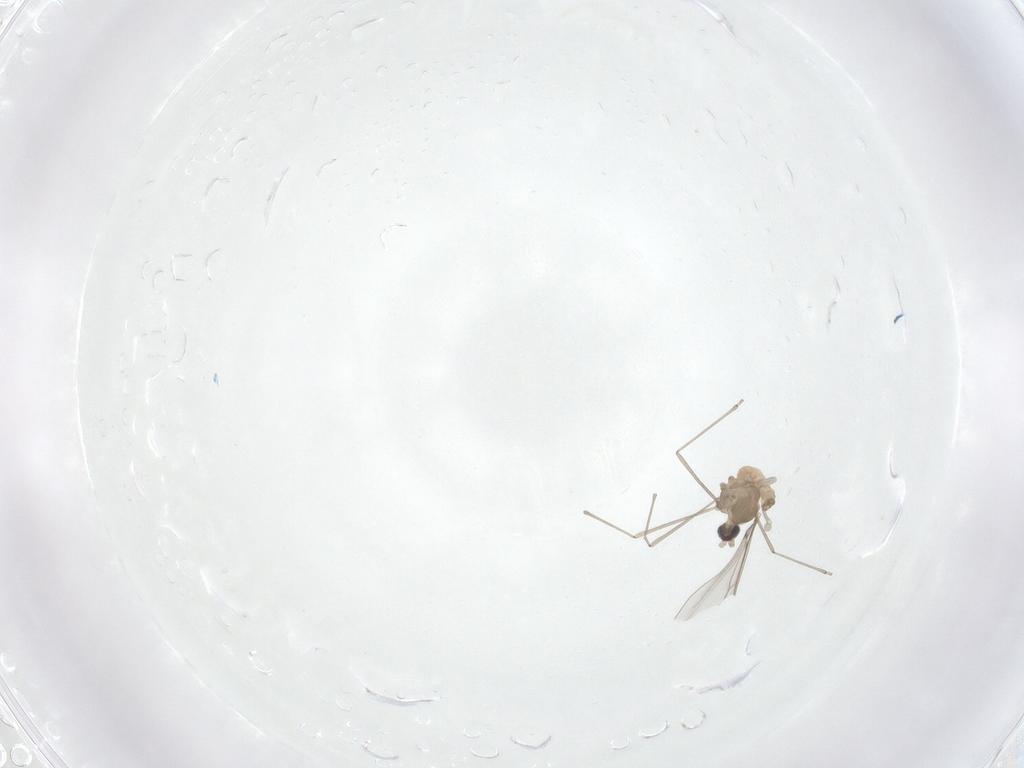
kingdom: Animalia
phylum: Arthropoda
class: Insecta
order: Diptera
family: Cecidomyiidae
